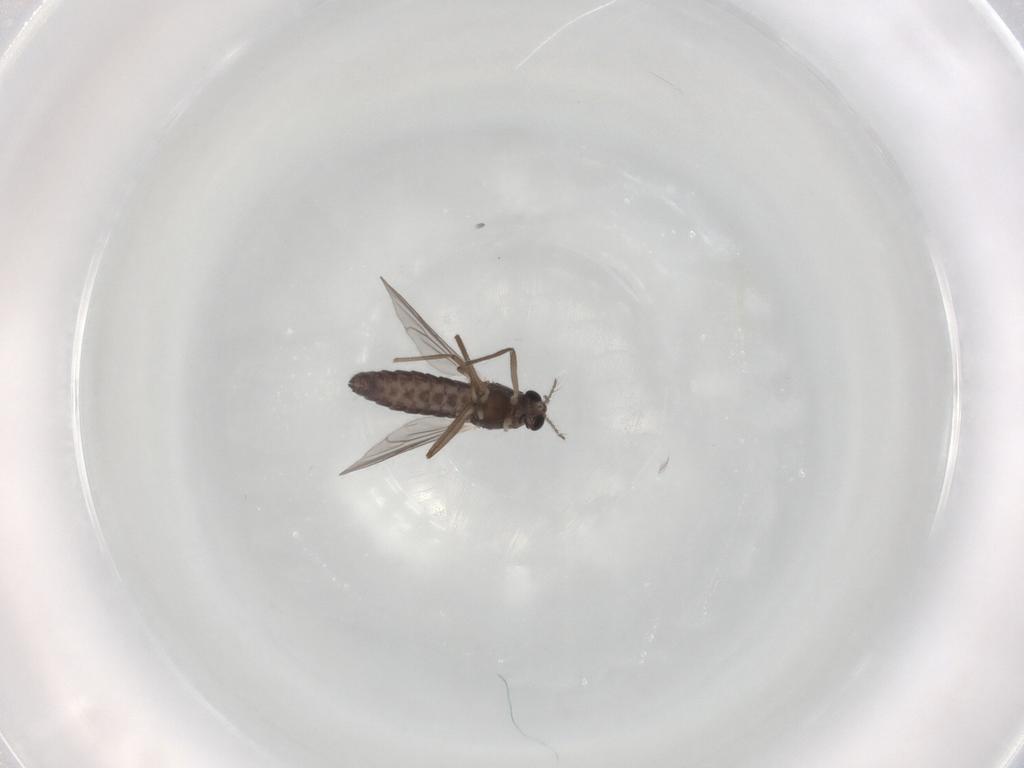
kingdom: Animalia
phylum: Arthropoda
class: Insecta
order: Diptera
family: Chironomidae
